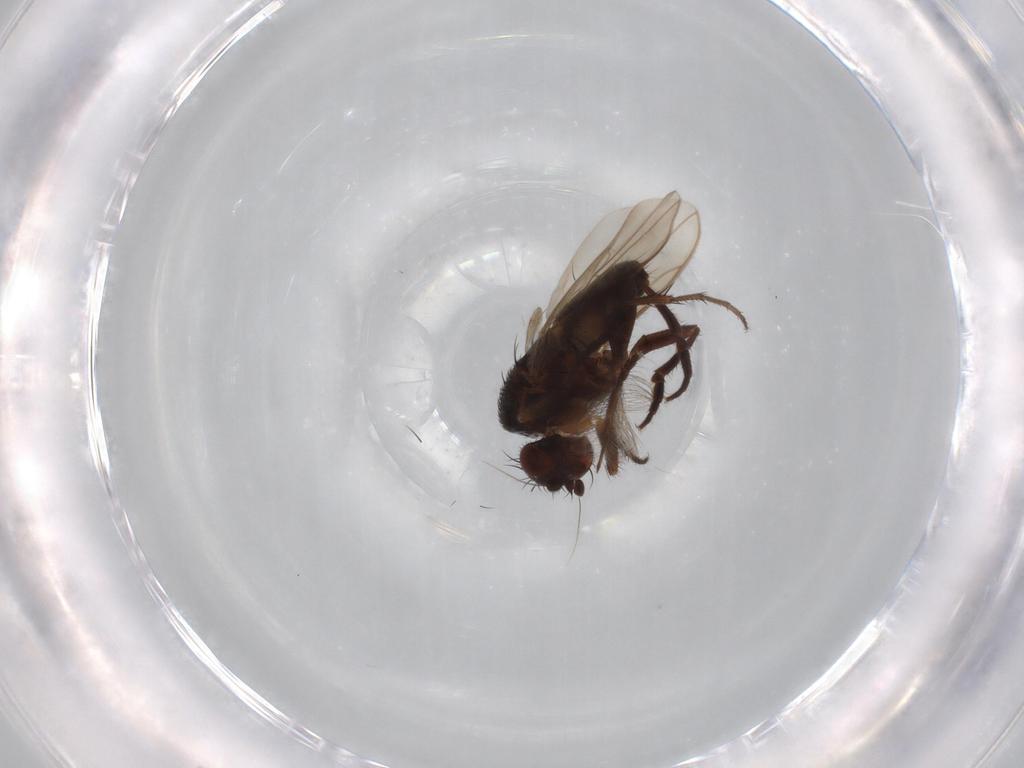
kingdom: Animalia
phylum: Arthropoda
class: Insecta
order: Diptera
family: Sphaeroceridae
